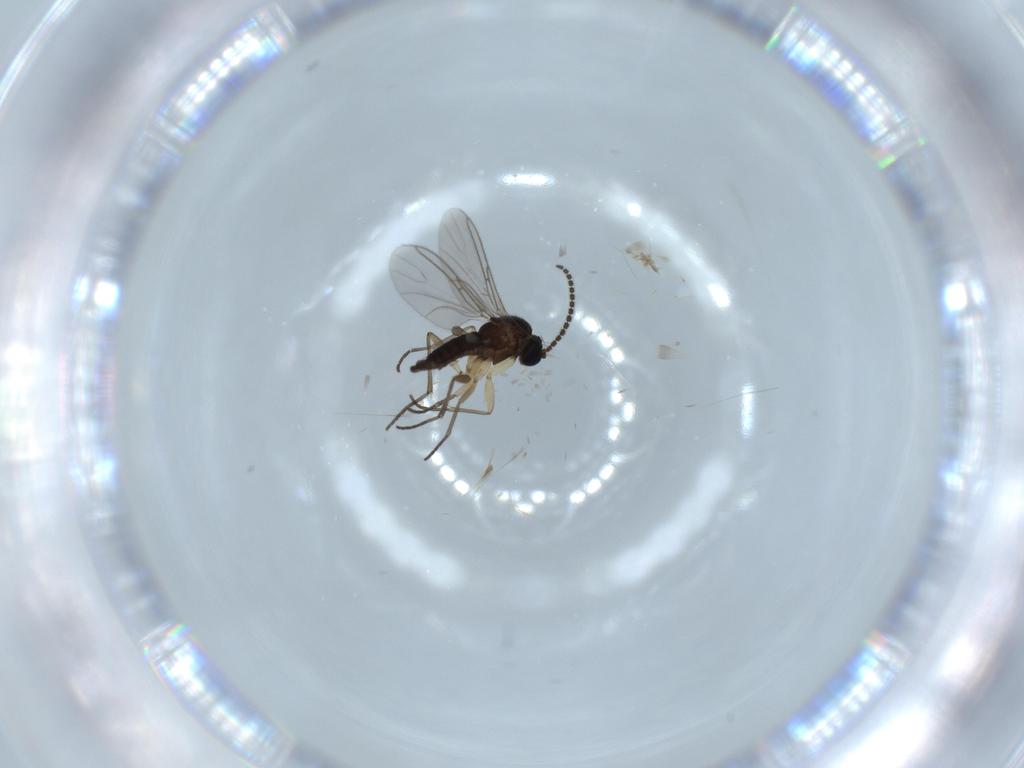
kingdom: Animalia
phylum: Arthropoda
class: Insecta
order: Diptera
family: Sciaridae
